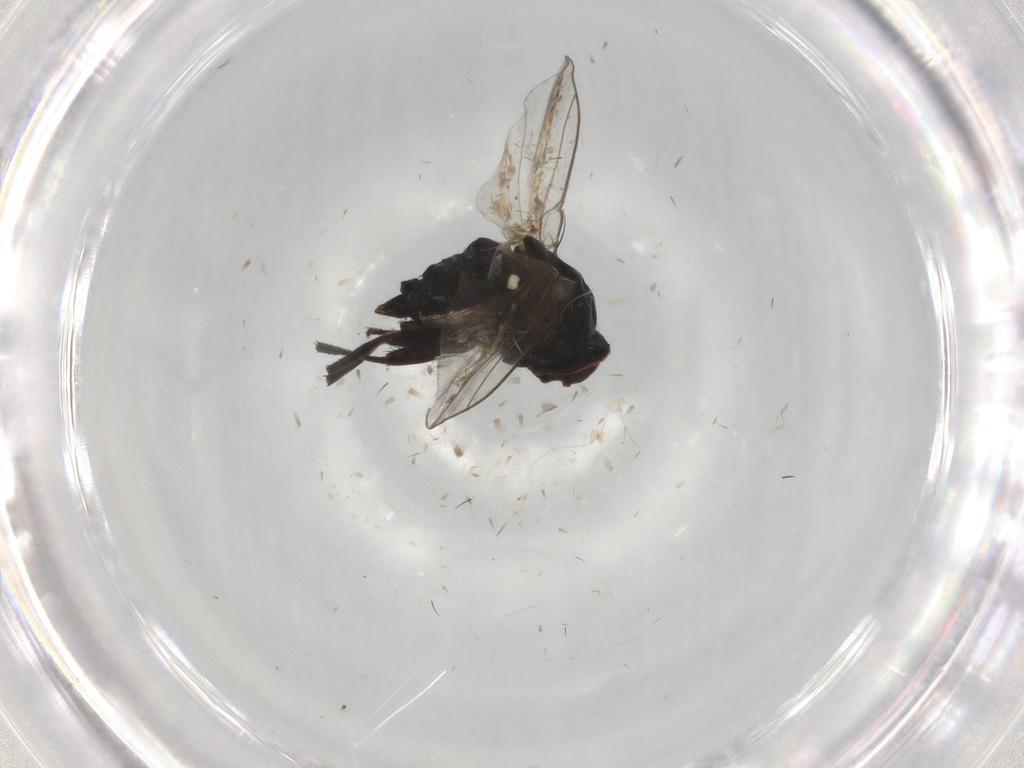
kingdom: Animalia
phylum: Arthropoda
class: Insecta
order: Diptera
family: Agromyzidae
